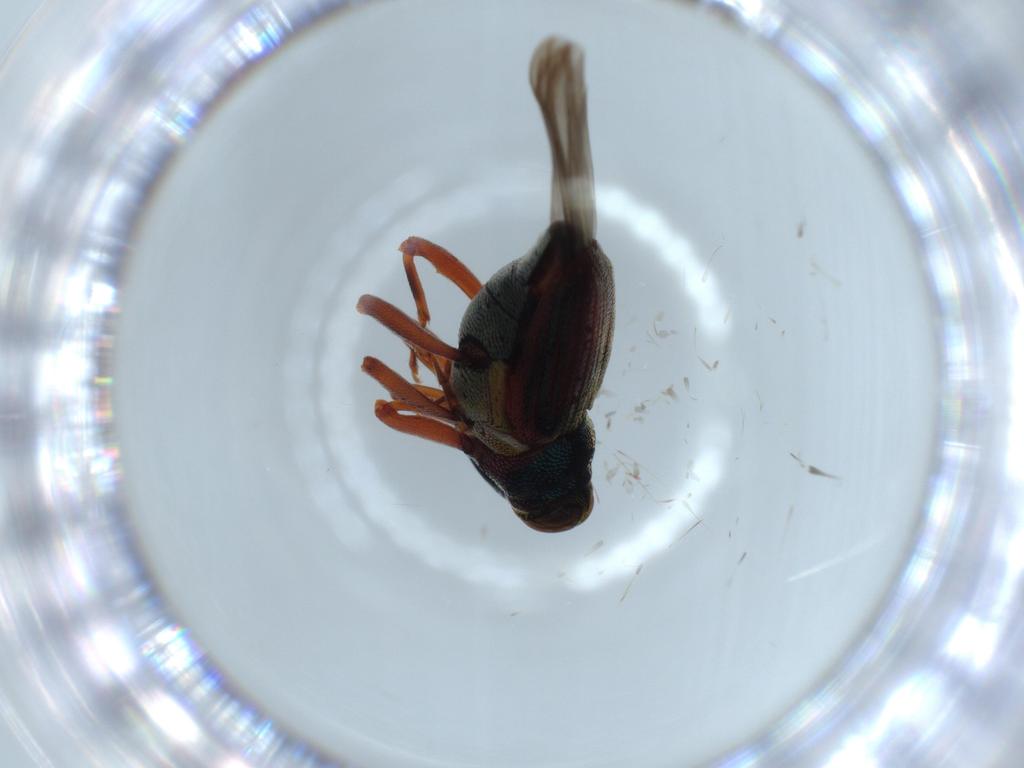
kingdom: Animalia
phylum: Arthropoda
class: Insecta
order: Coleoptera
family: Curculionidae
